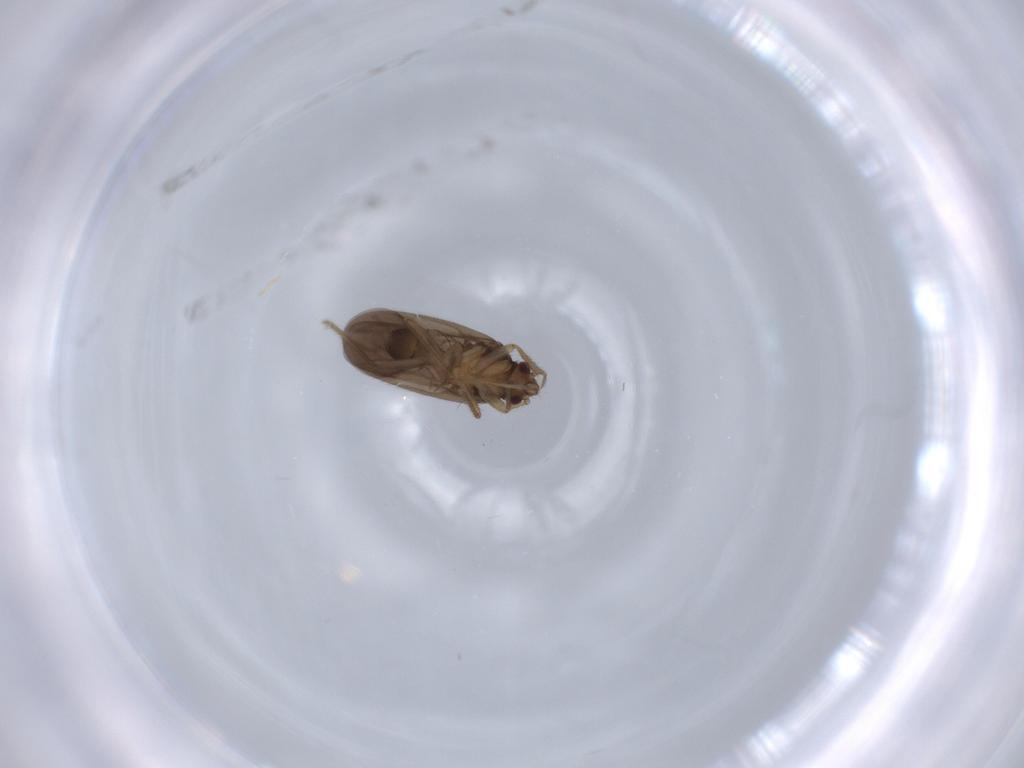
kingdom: Animalia
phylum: Arthropoda
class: Insecta
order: Hemiptera
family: Ceratocombidae
